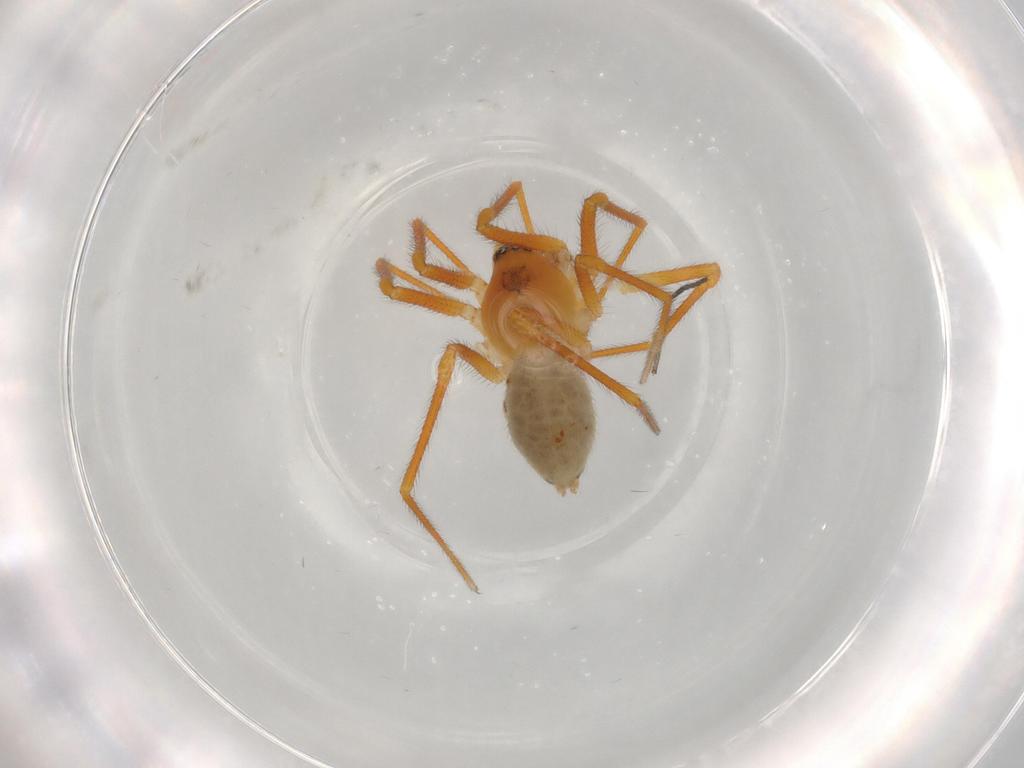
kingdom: Animalia
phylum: Arthropoda
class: Arachnida
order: Araneae
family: Linyphiidae
